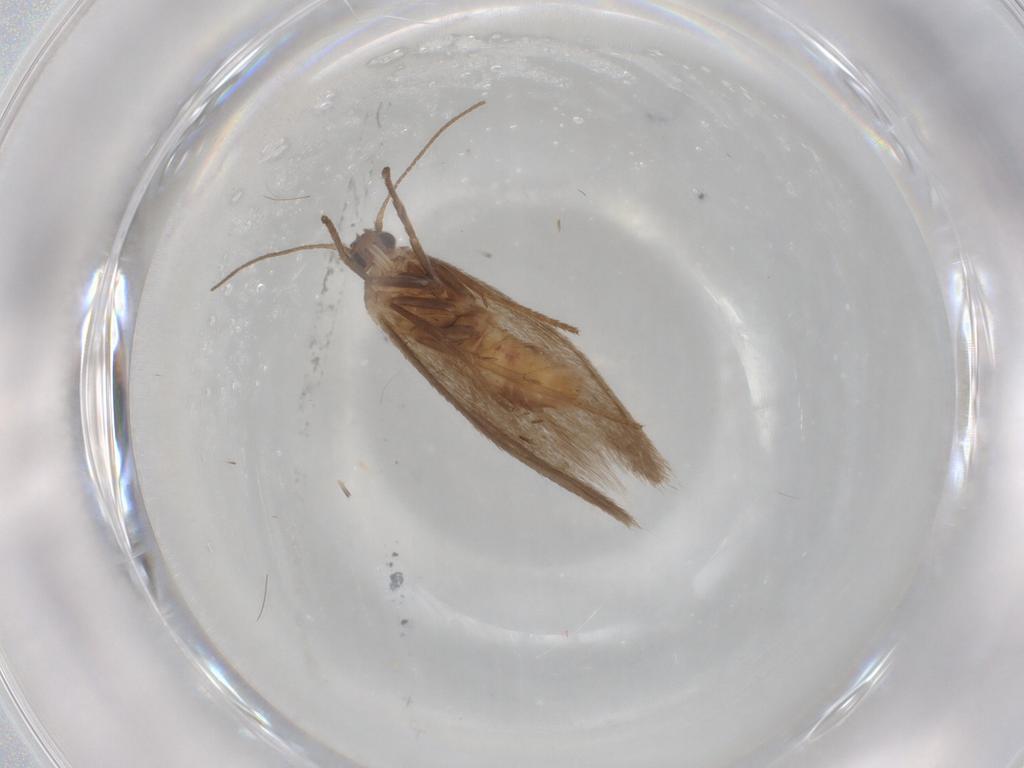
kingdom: Animalia
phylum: Arthropoda
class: Insecta
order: Lepidoptera
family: Limacodidae
